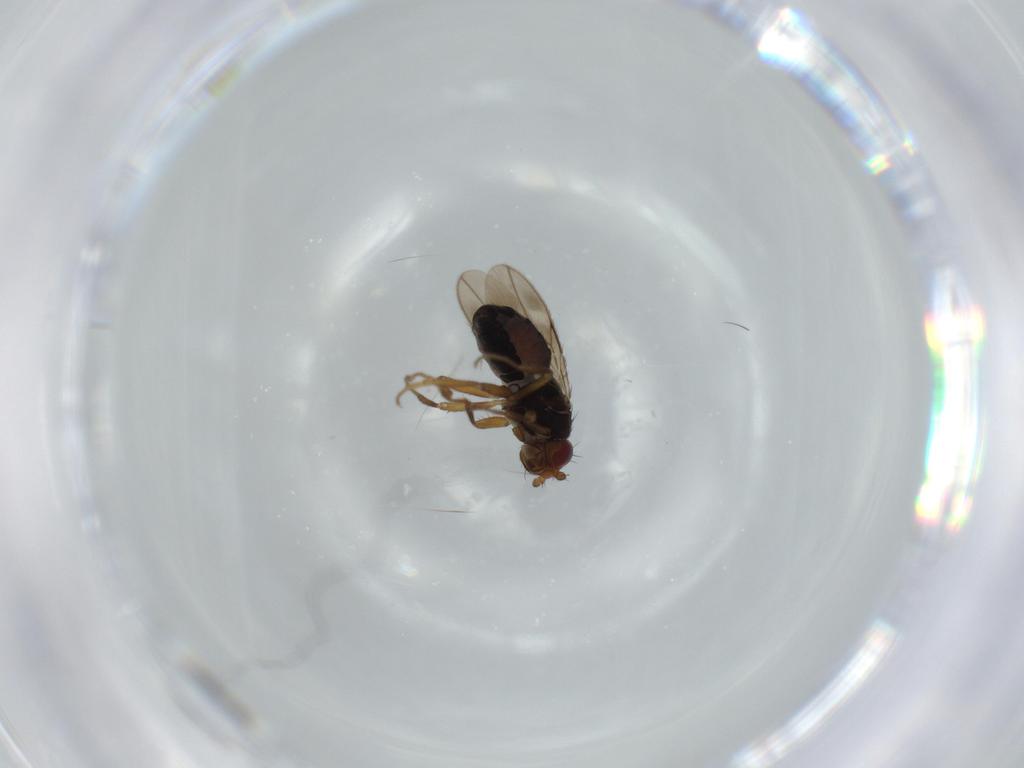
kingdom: Animalia
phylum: Arthropoda
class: Insecta
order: Diptera
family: Sphaeroceridae
